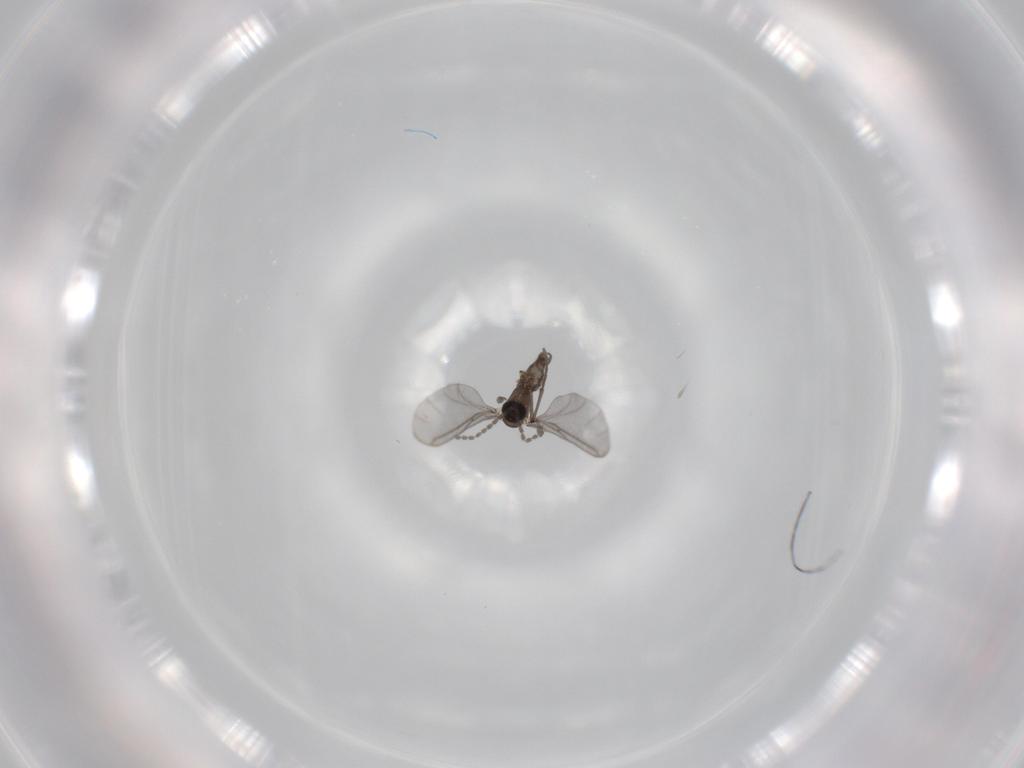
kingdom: Animalia
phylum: Arthropoda
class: Insecta
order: Diptera
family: Sciaridae
